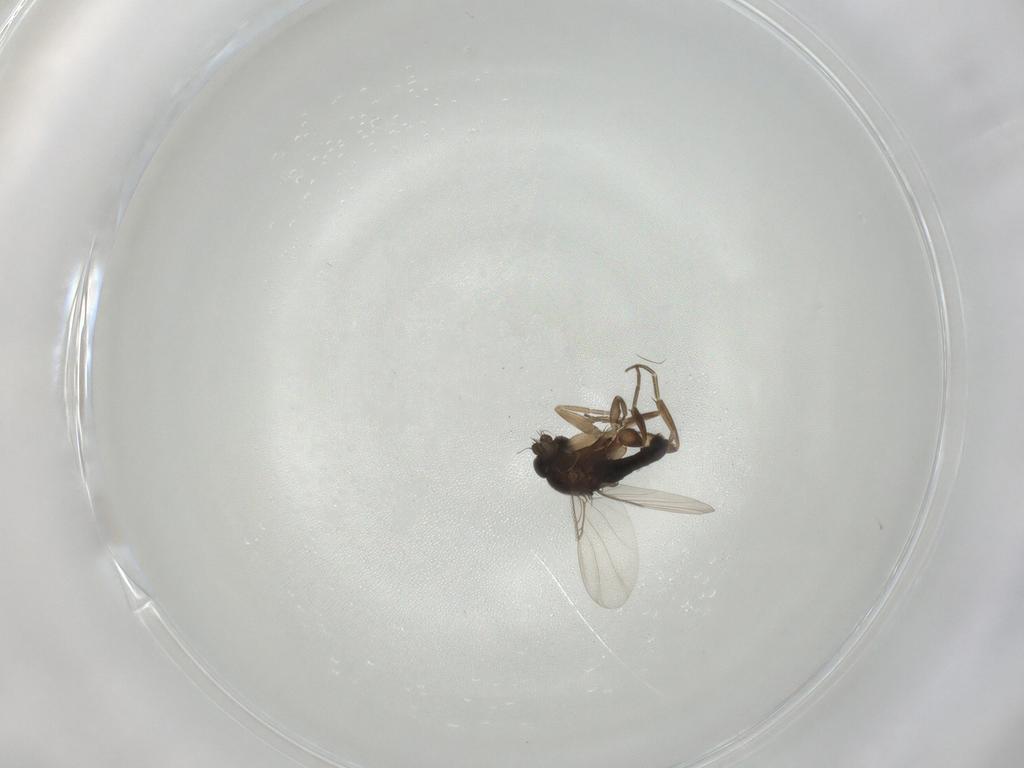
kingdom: Animalia
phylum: Arthropoda
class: Insecta
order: Diptera
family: Phoridae
